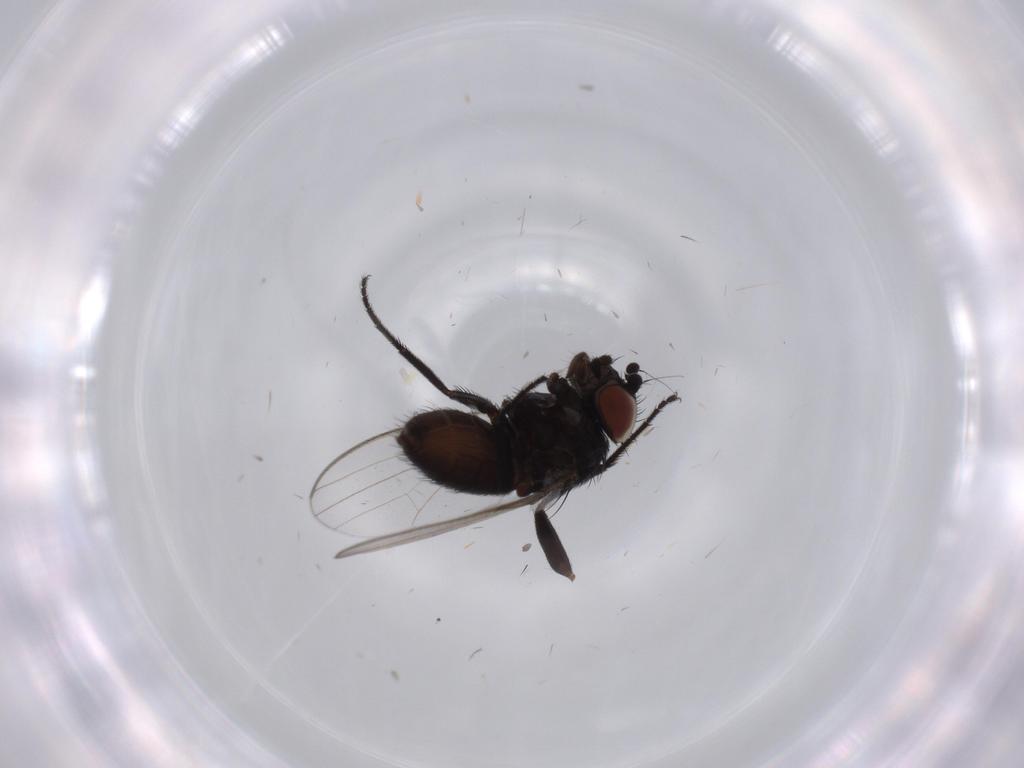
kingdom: Animalia
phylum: Arthropoda
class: Insecta
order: Diptera
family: Milichiidae
